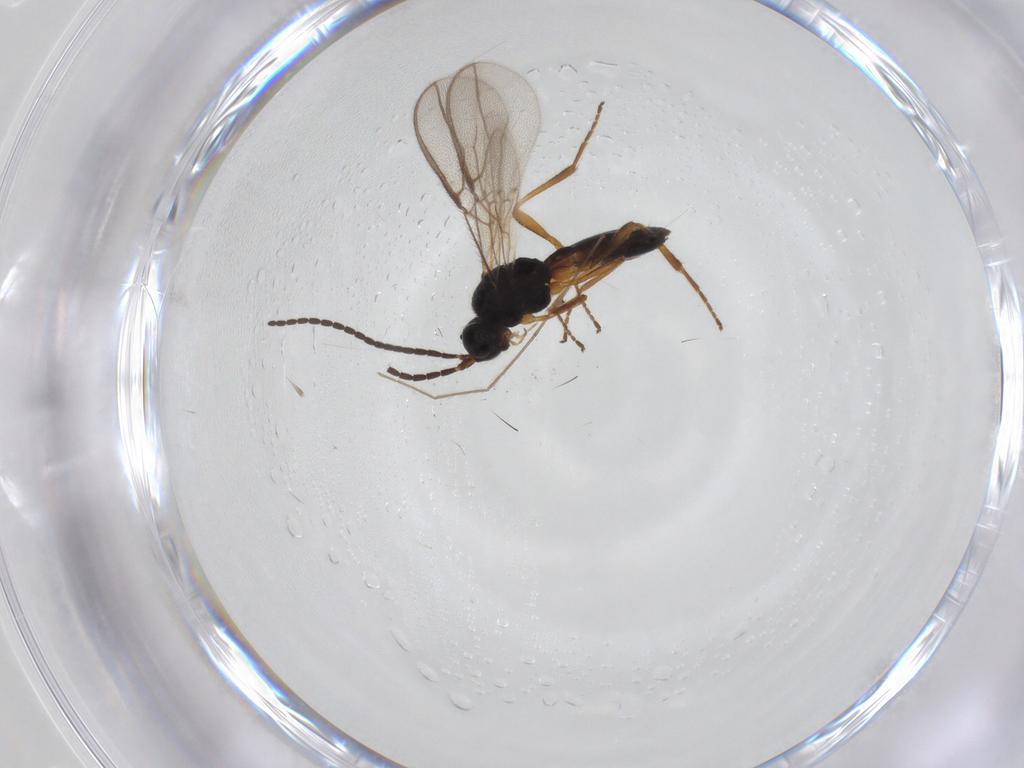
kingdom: Animalia
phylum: Arthropoda
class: Insecta
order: Hymenoptera
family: Braconidae
